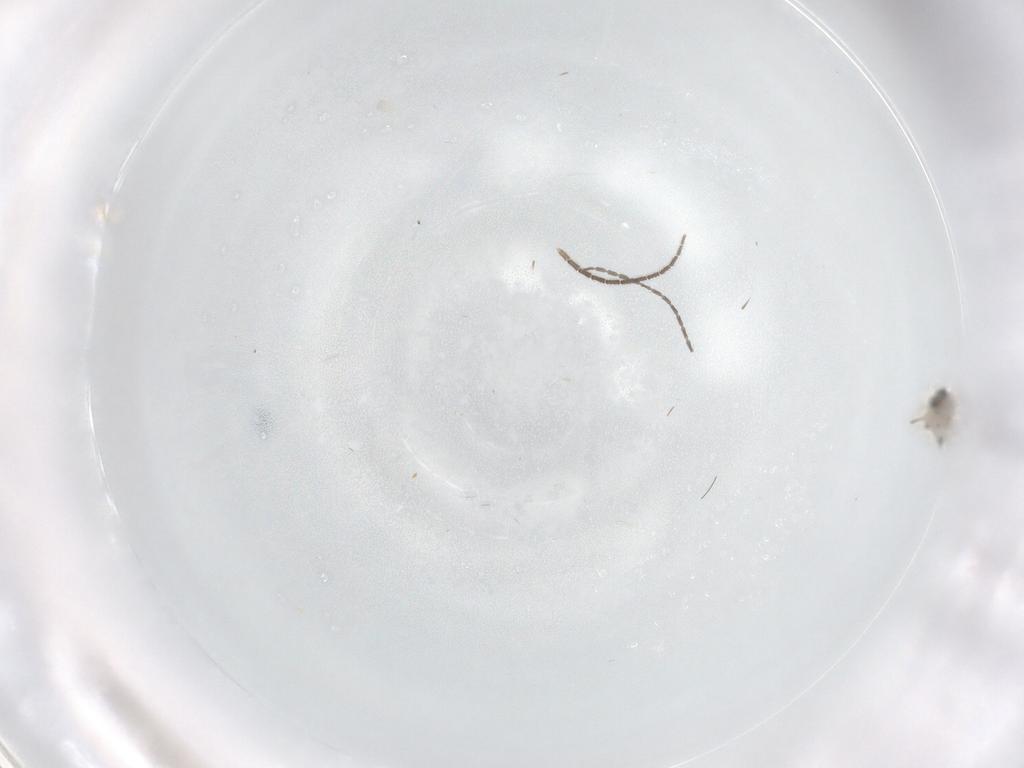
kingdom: Animalia
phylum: Arthropoda
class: Insecta
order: Diptera
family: Sciaridae
